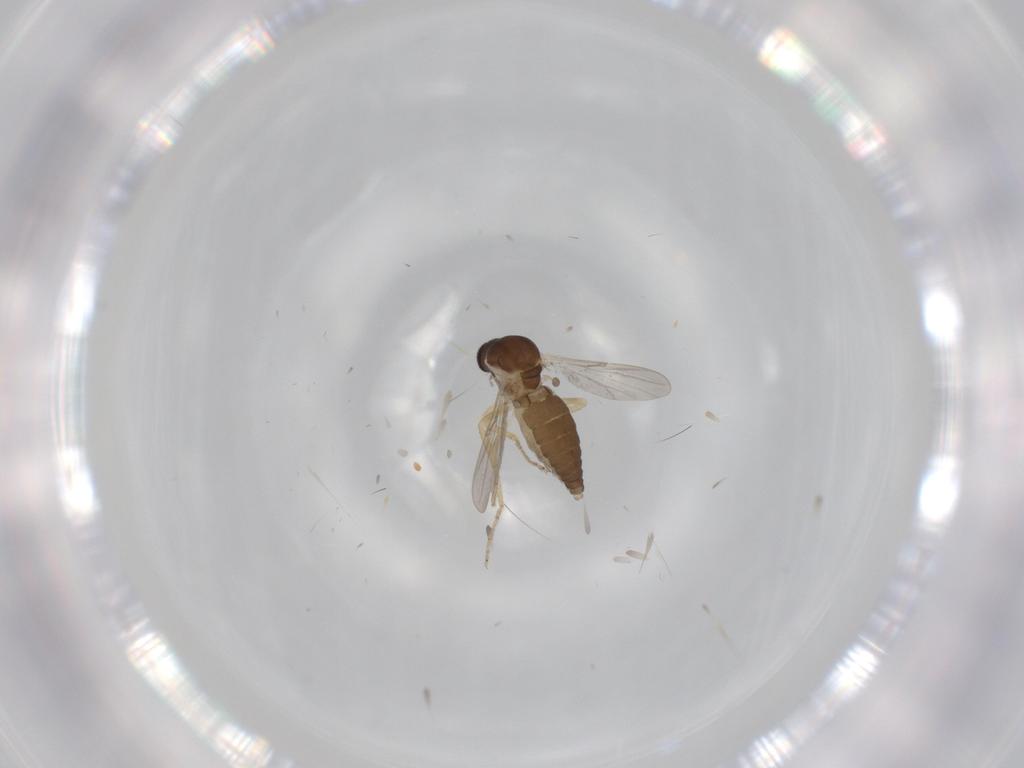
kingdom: Animalia
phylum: Arthropoda
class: Insecta
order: Diptera
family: Ceratopogonidae
